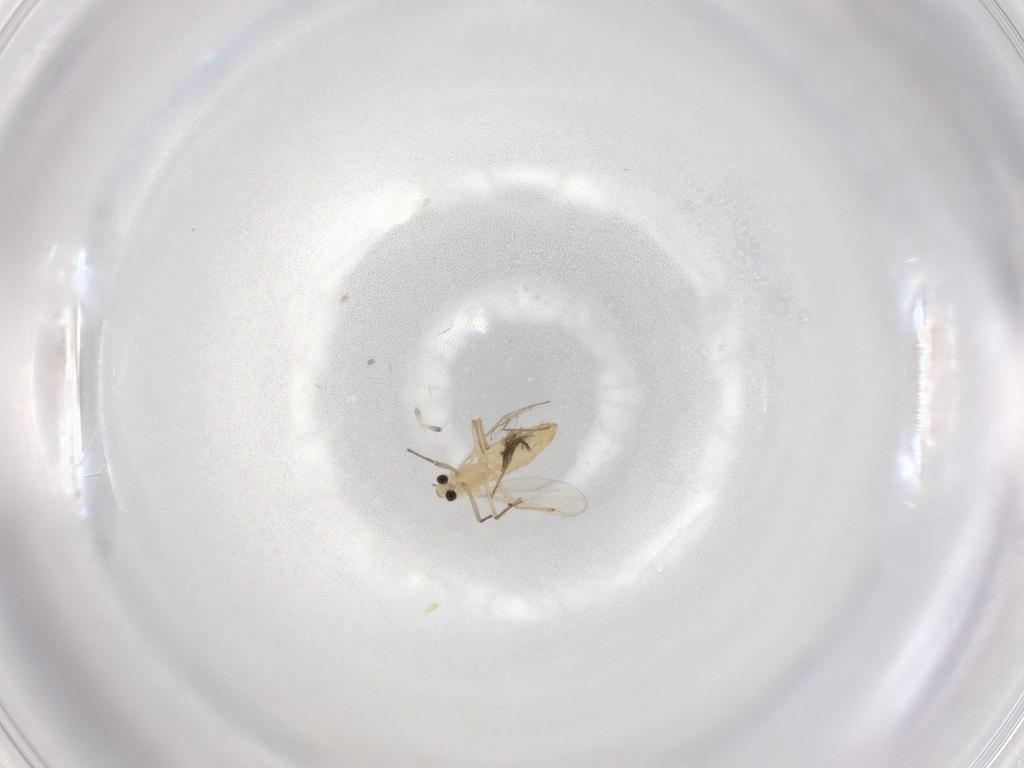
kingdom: Animalia
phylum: Arthropoda
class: Insecta
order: Diptera
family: Chironomidae
